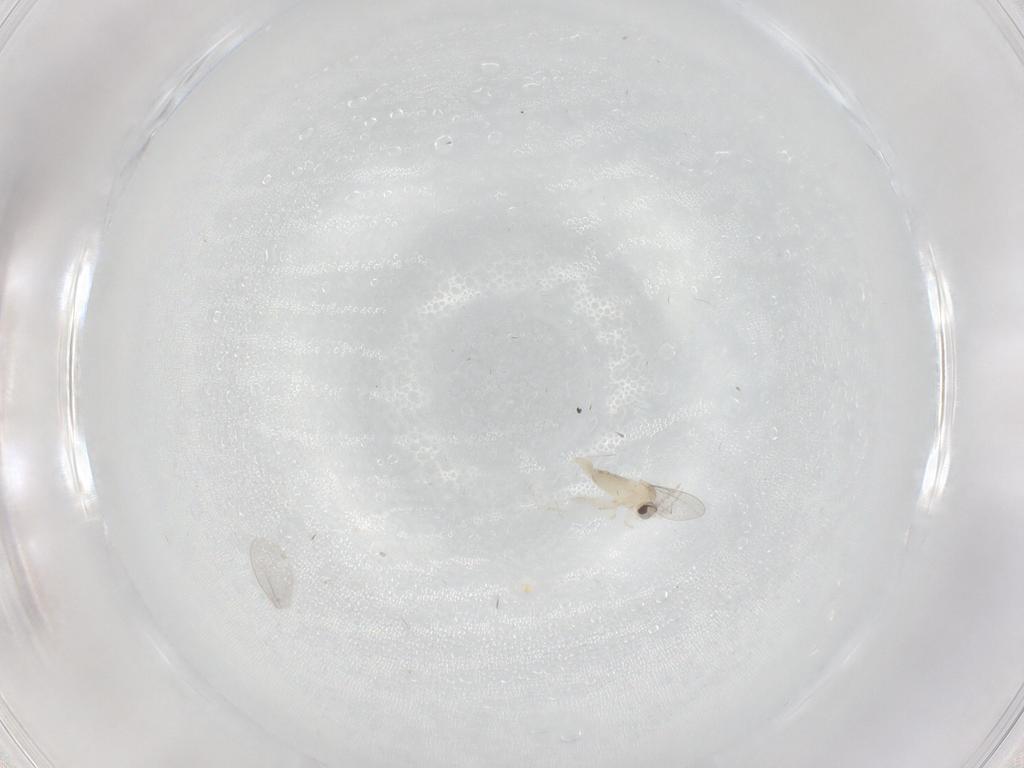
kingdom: Animalia
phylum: Arthropoda
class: Insecta
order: Diptera
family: Cecidomyiidae
